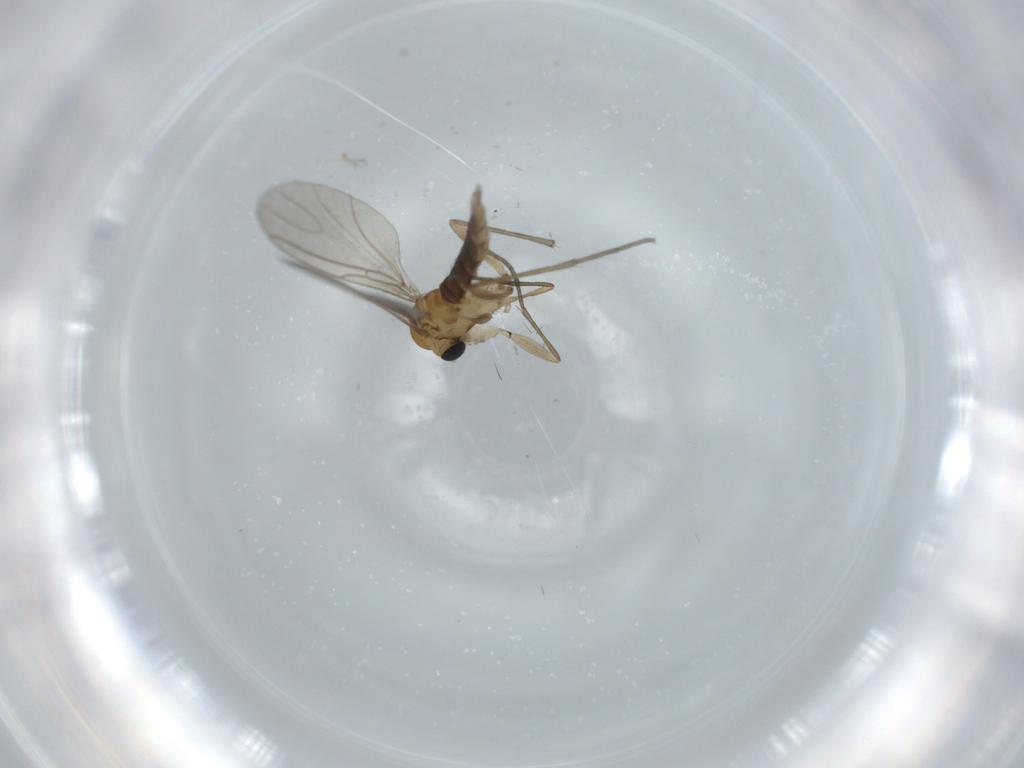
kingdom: Animalia
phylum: Arthropoda
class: Insecta
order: Diptera
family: Sciaridae
